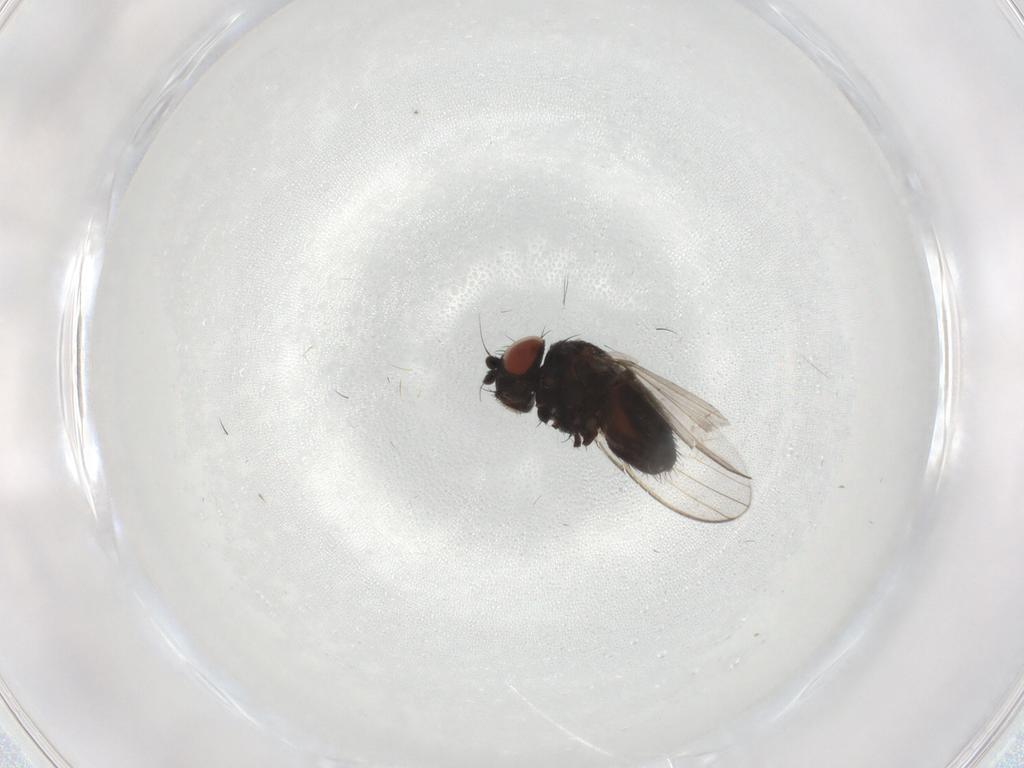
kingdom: Animalia
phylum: Arthropoda
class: Insecta
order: Diptera
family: Milichiidae
